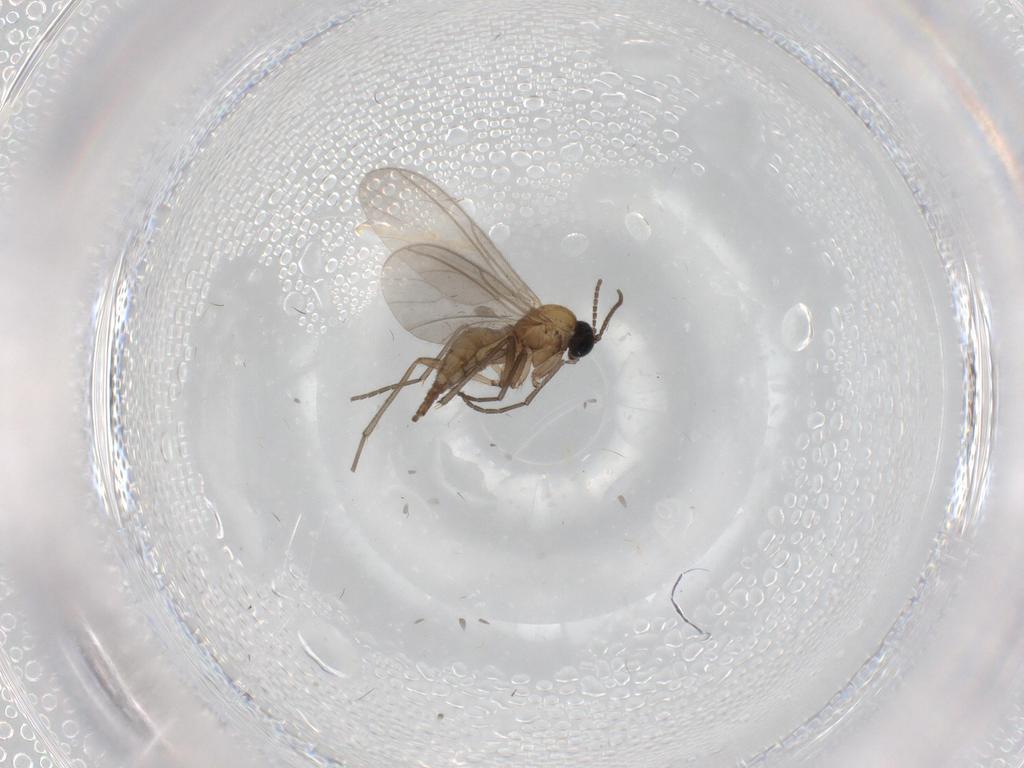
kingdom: Animalia
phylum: Arthropoda
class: Insecta
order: Diptera
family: Sciaridae
